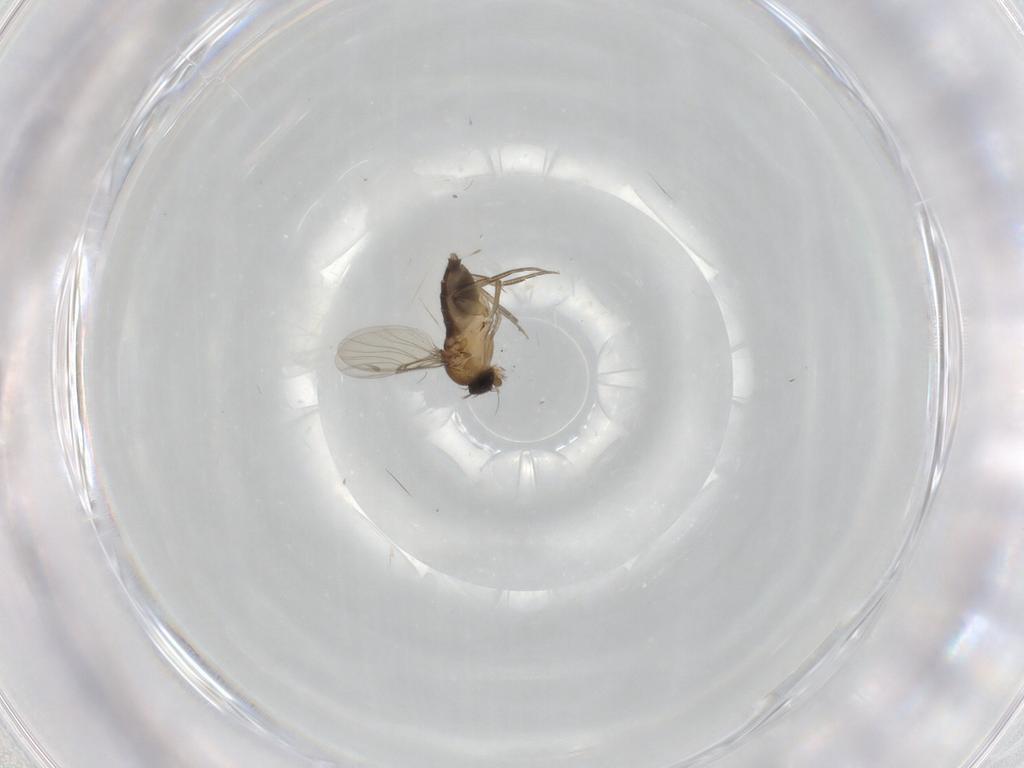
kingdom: Animalia
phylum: Arthropoda
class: Insecta
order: Diptera
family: Phoridae
